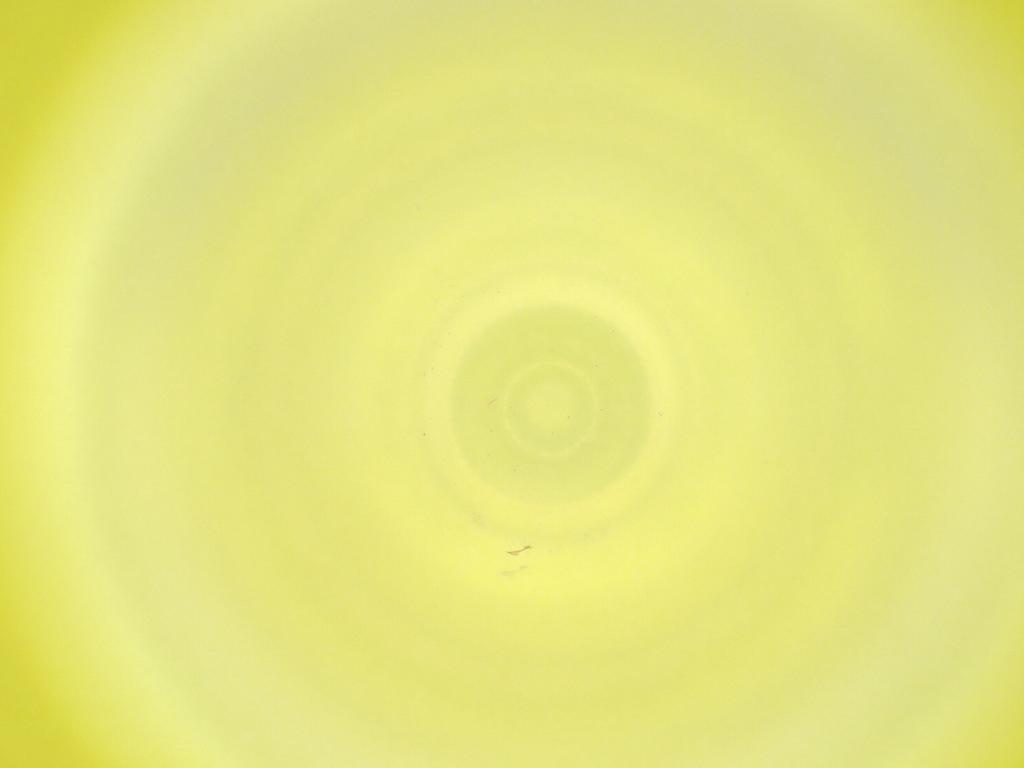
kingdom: Animalia
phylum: Arthropoda
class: Insecta
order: Diptera
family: Cecidomyiidae
